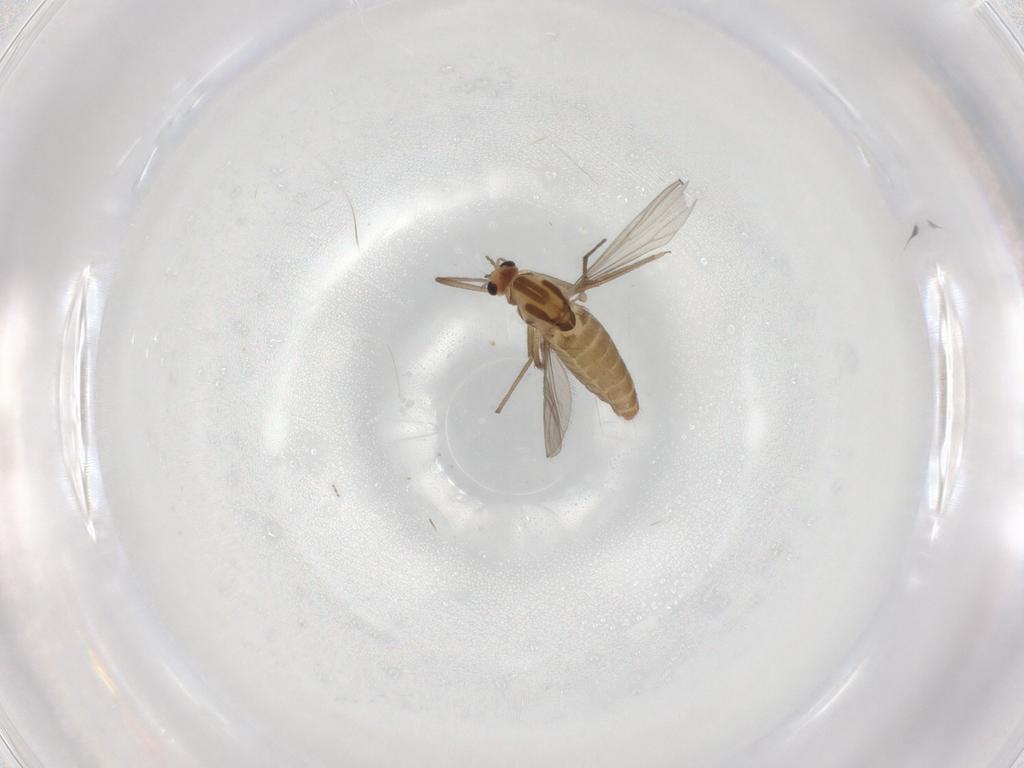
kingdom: Animalia
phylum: Arthropoda
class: Insecta
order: Diptera
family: Chironomidae
